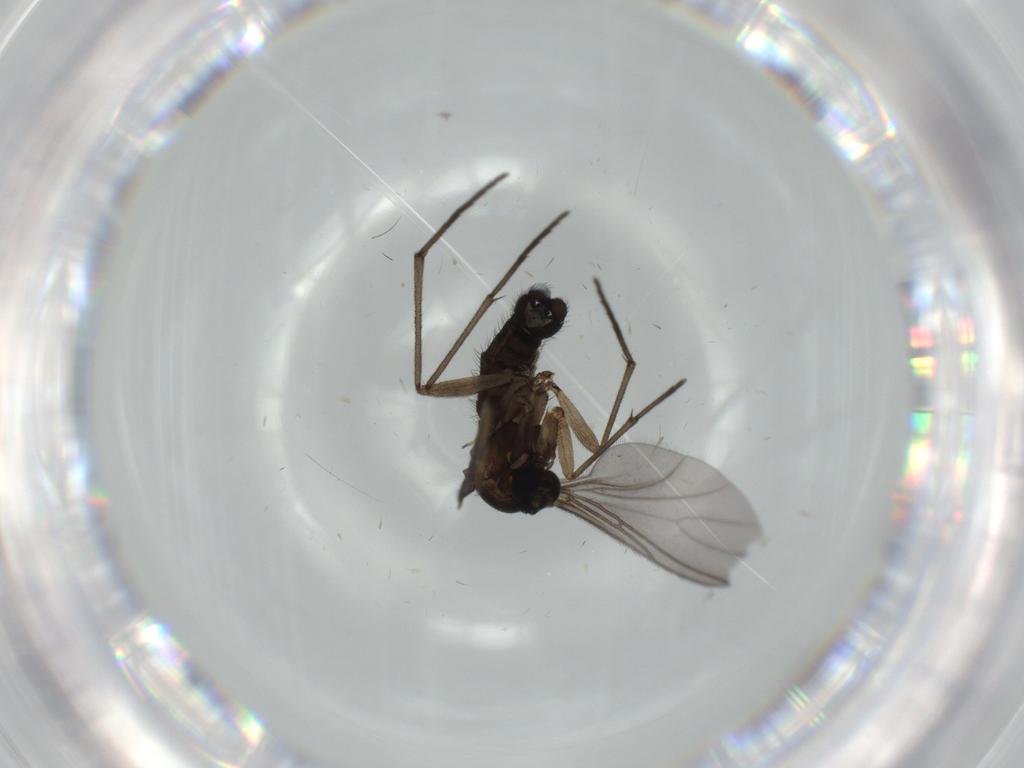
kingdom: Animalia
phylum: Arthropoda
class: Insecta
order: Diptera
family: Sciaridae
